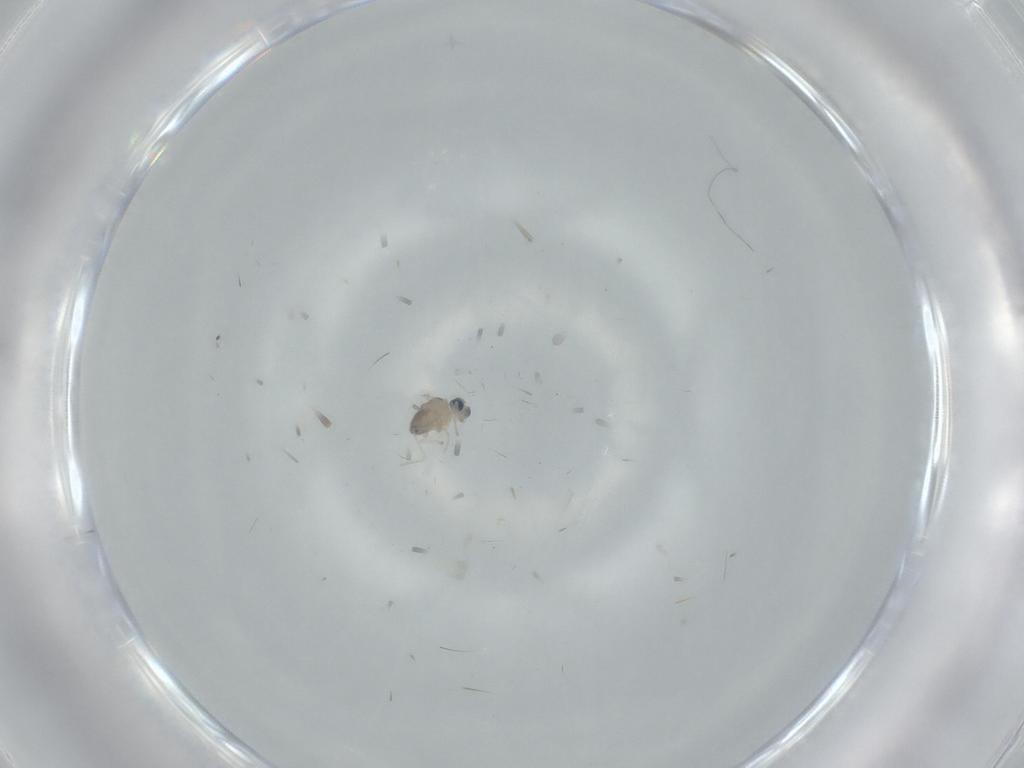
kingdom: Animalia
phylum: Arthropoda
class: Insecta
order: Diptera
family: Cecidomyiidae
